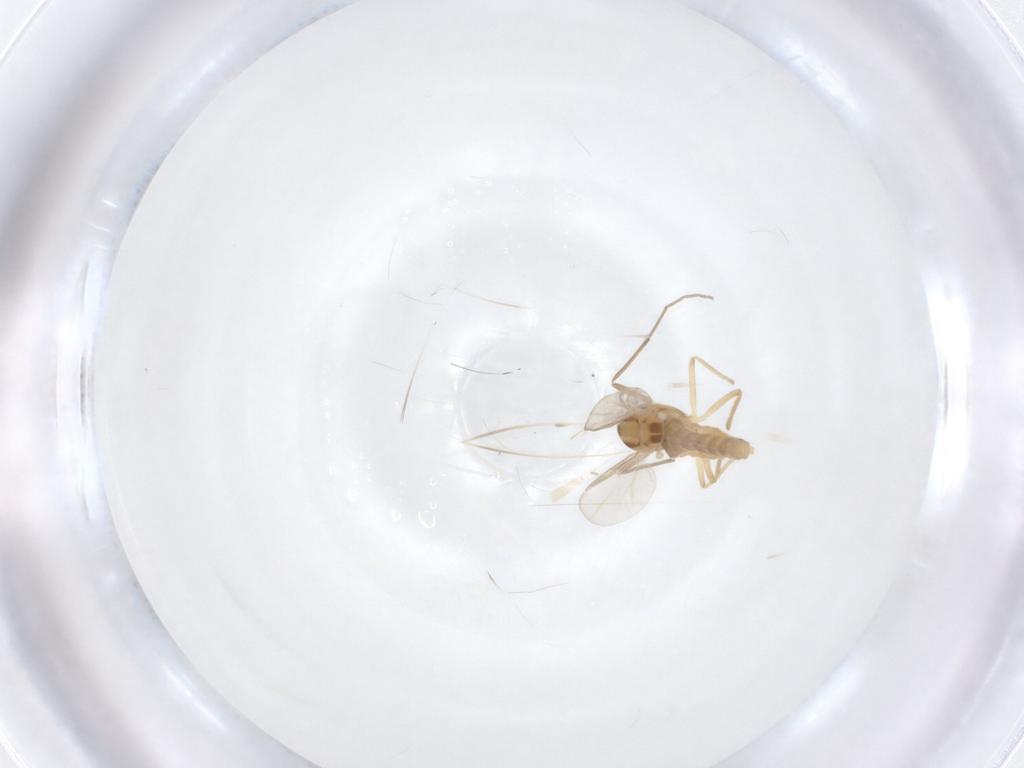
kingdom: Animalia
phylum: Arthropoda
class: Insecta
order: Diptera
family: Chironomidae
